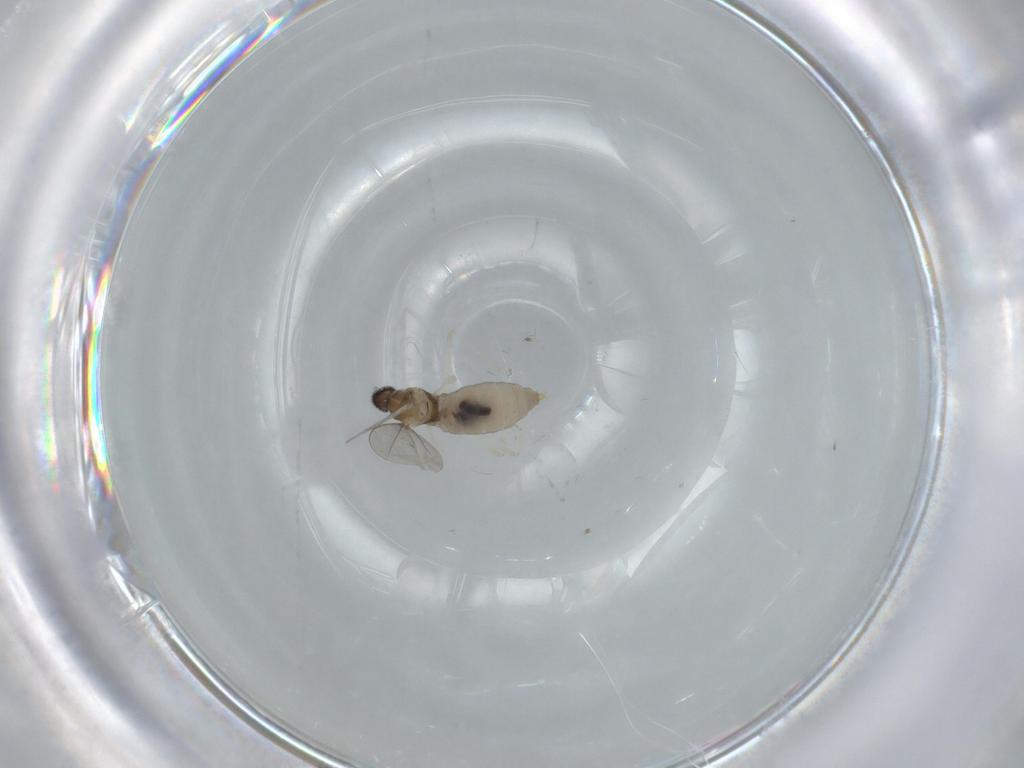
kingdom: Animalia
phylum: Arthropoda
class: Insecta
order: Diptera
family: Cecidomyiidae
